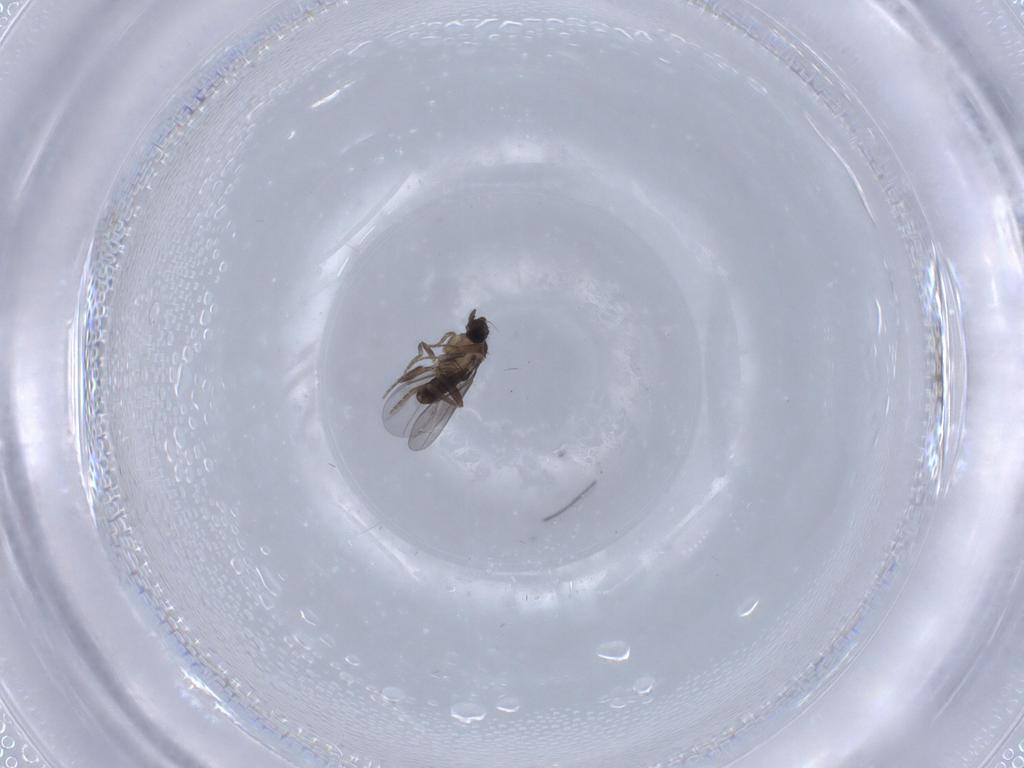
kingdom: Animalia
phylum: Arthropoda
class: Insecta
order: Diptera
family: Phoridae
